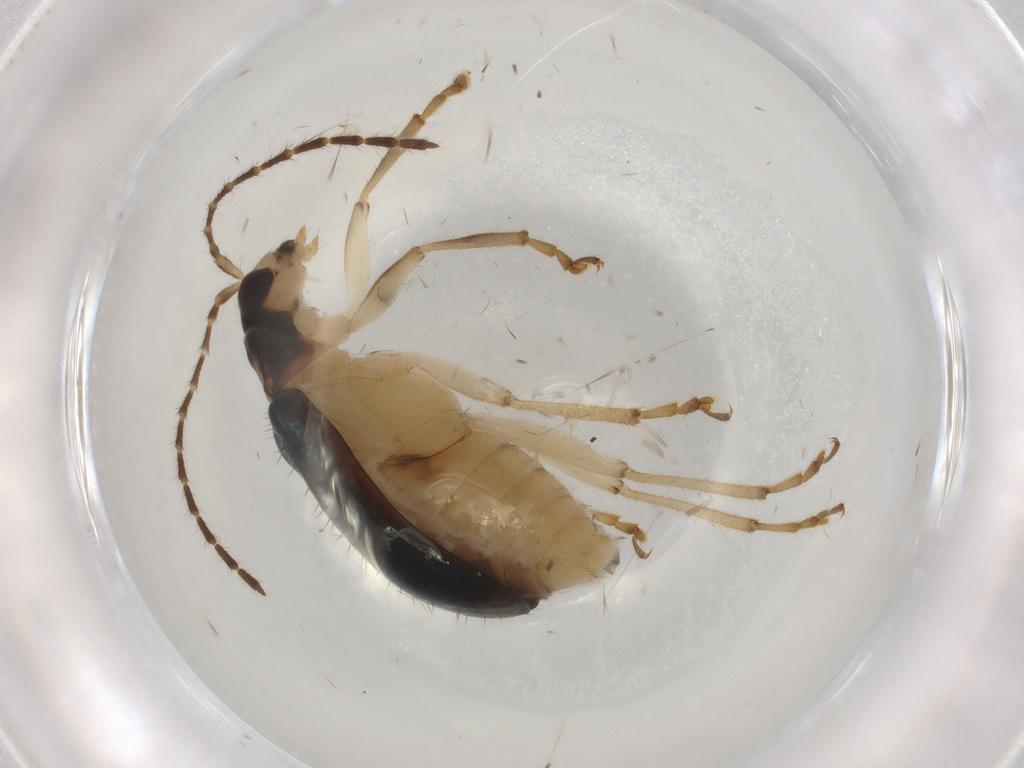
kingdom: Animalia
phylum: Arthropoda
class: Insecta
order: Coleoptera
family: Chrysomelidae
